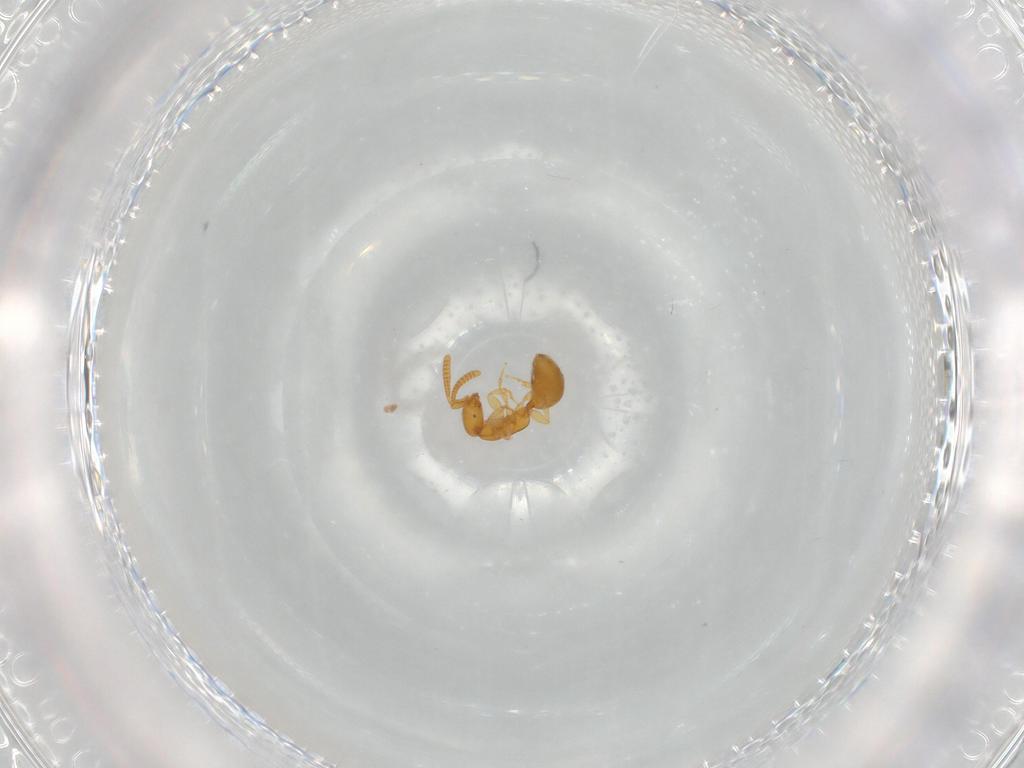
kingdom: Animalia
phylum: Arthropoda
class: Insecta
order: Hymenoptera
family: Bethylidae
